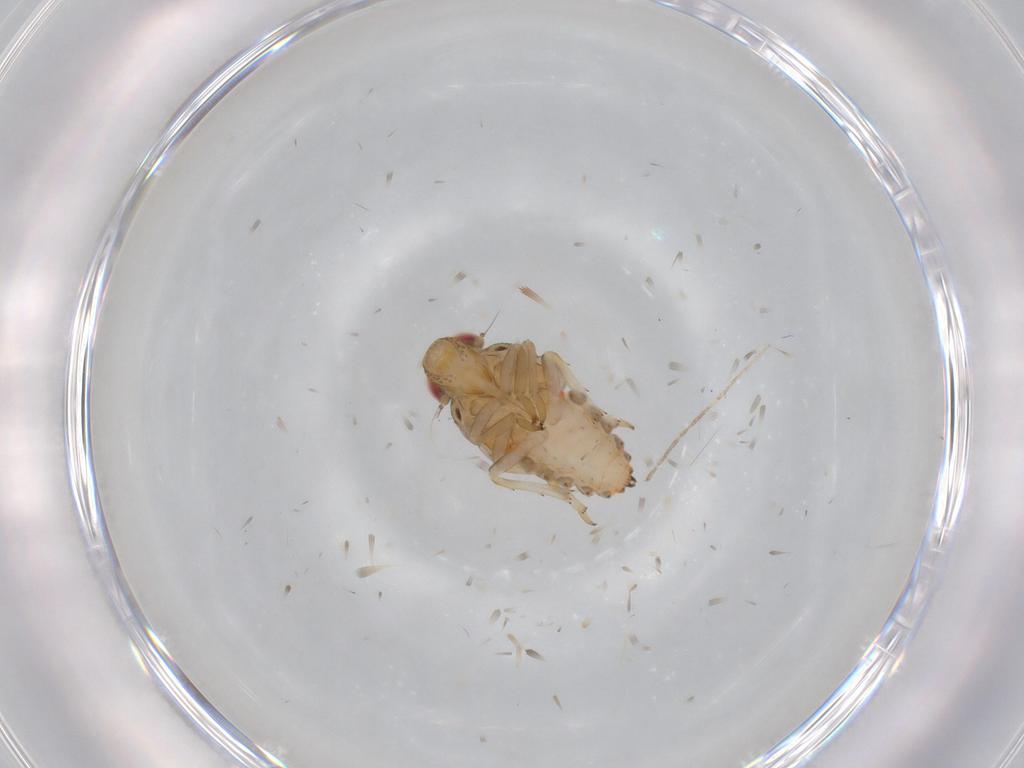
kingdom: Animalia
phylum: Arthropoda
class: Insecta
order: Hemiptera
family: Issidae
